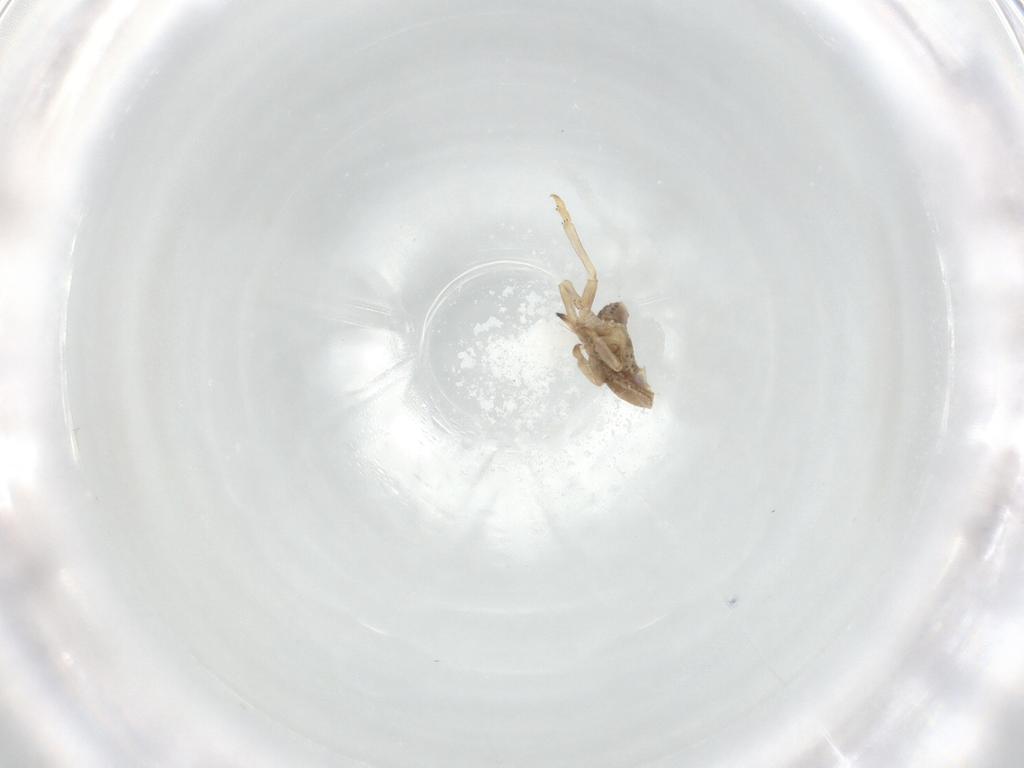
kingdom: Animalia
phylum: Arthropoda
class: Insecta
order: Hemiptera
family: Tropiduchidae
